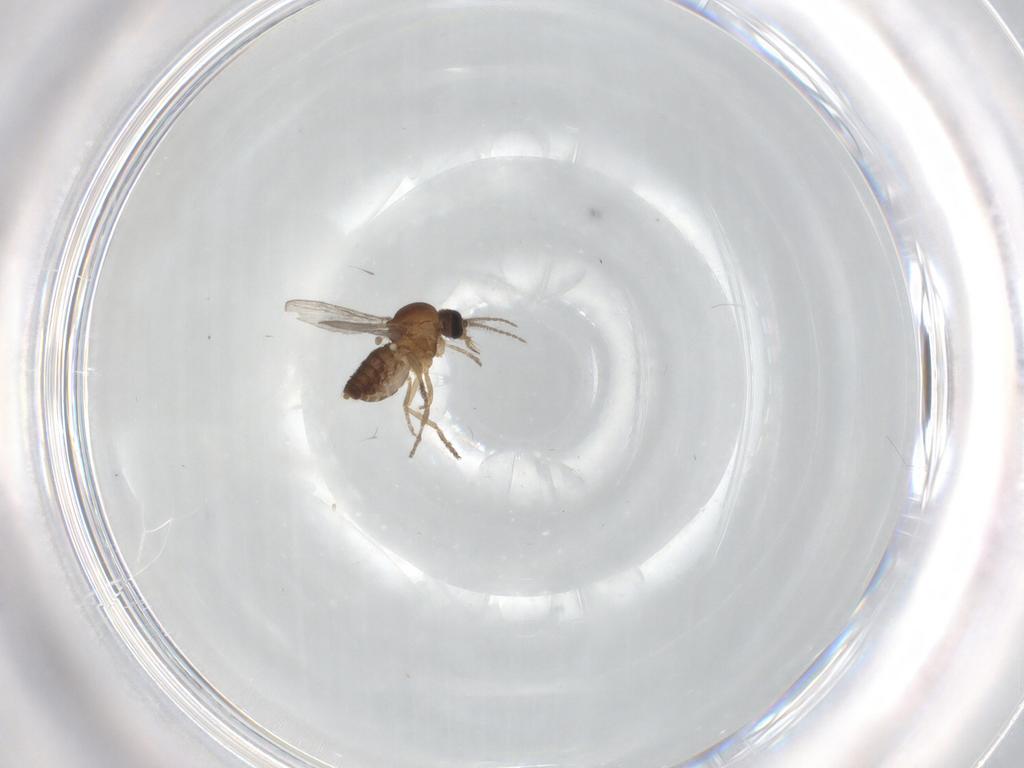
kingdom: Animalia
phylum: Arthropoda
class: Insecta
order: Diptera
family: Ceratopogonidae
